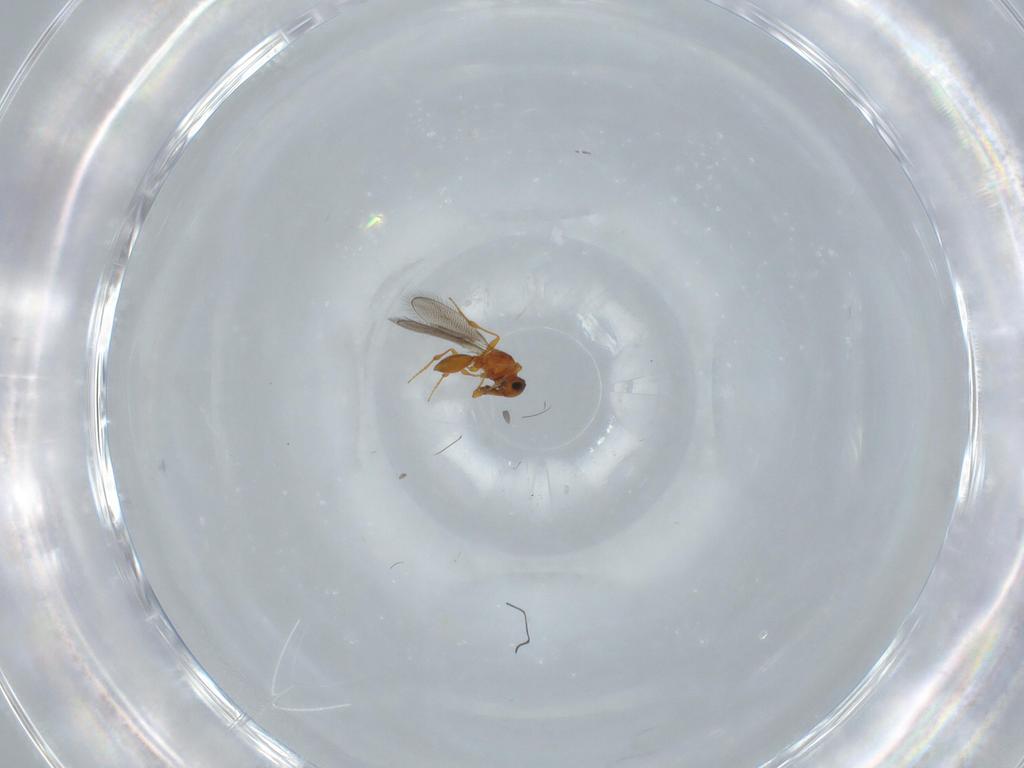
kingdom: Animalia
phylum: Arthropoda
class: Insecta
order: Hymenoptera
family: Platygastridae
